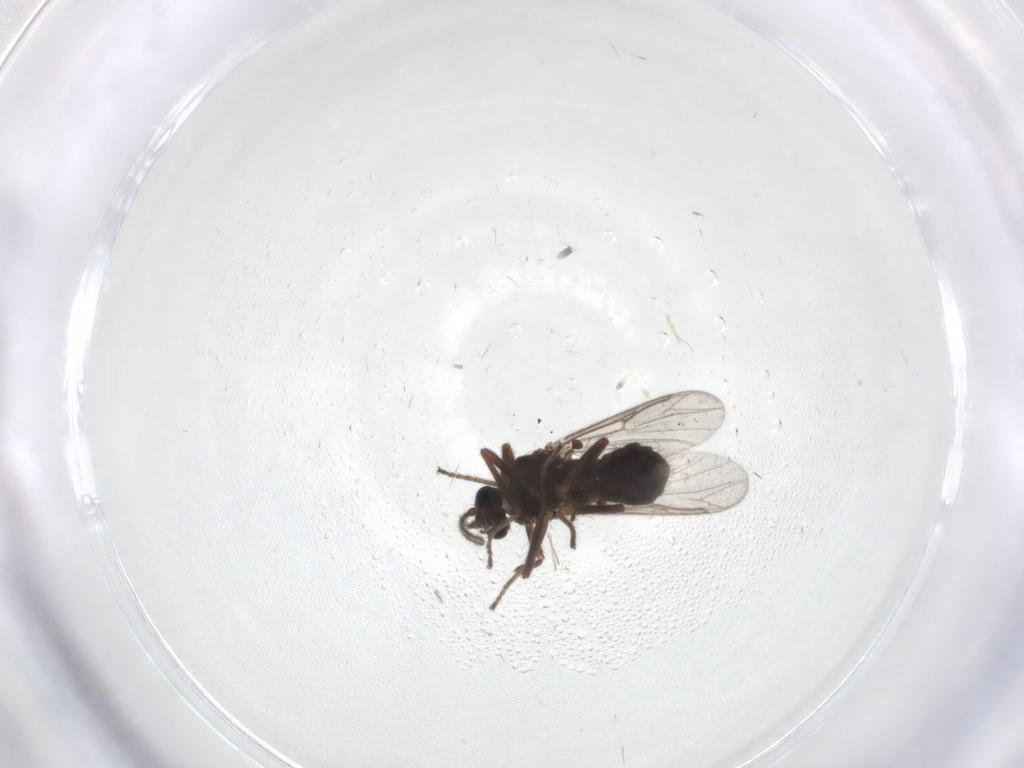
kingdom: Animalia
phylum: Arthropoda
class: Insecta
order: Diptera
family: Ceratopogonidae
